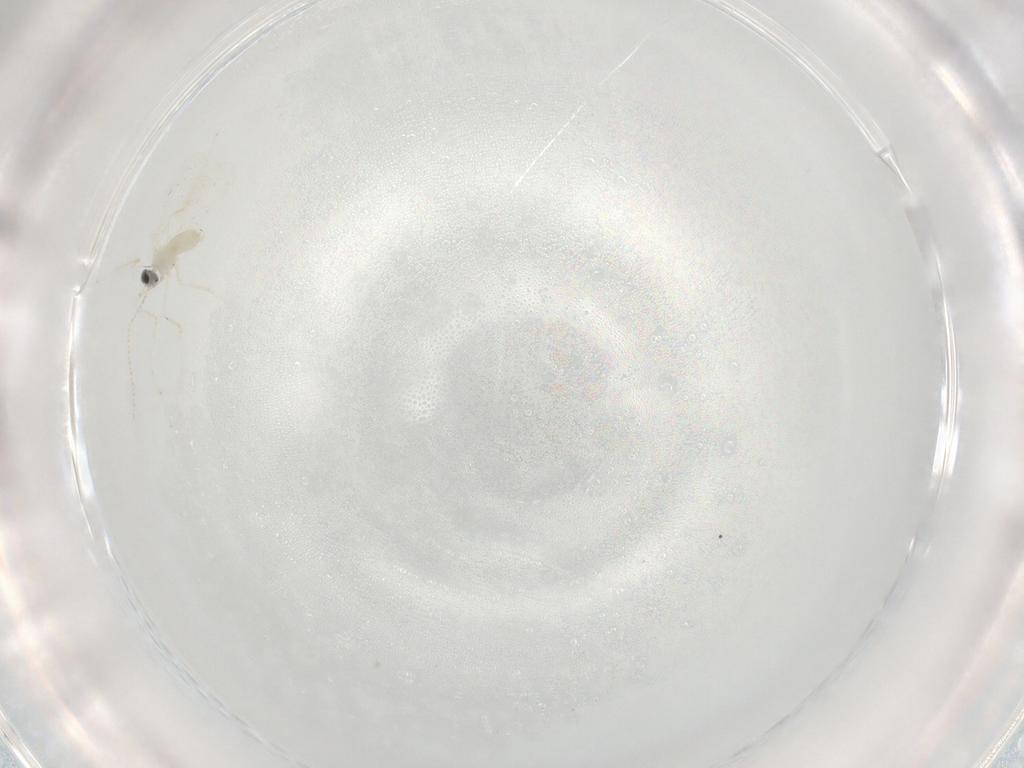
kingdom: Animalia
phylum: Arthropoda
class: Insecta
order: Diptera
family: Cecidomyiidae
